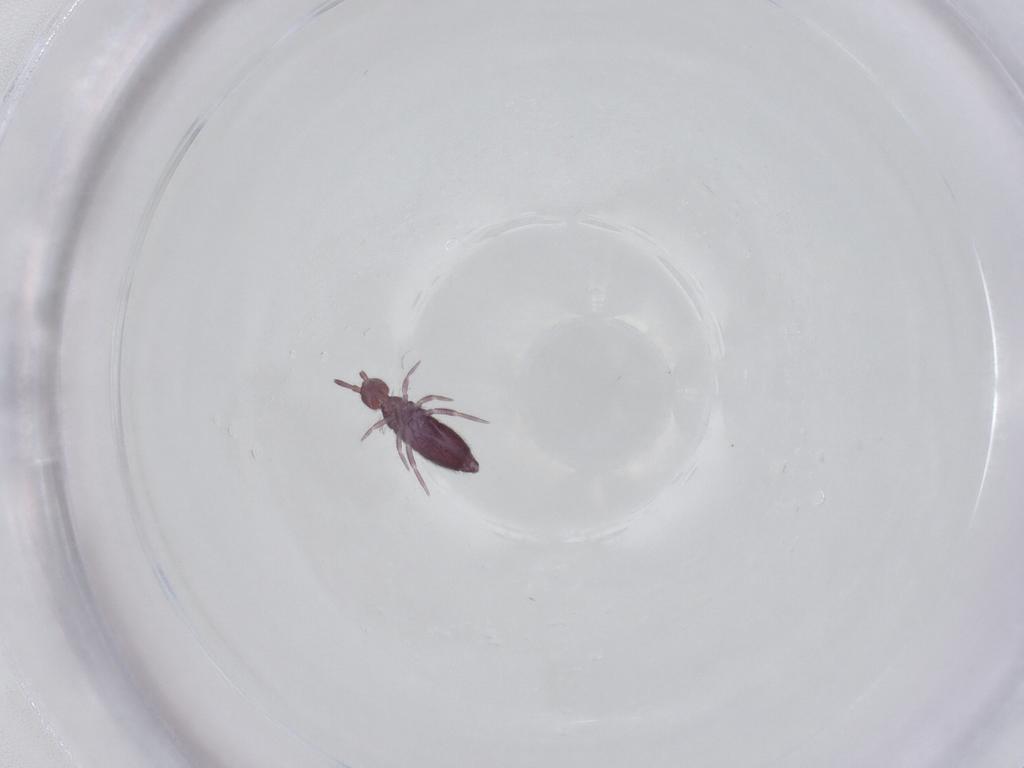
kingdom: Animalia
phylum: Arthropoda
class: Collembola
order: Entomobryomorpha
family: Entomobryidae
